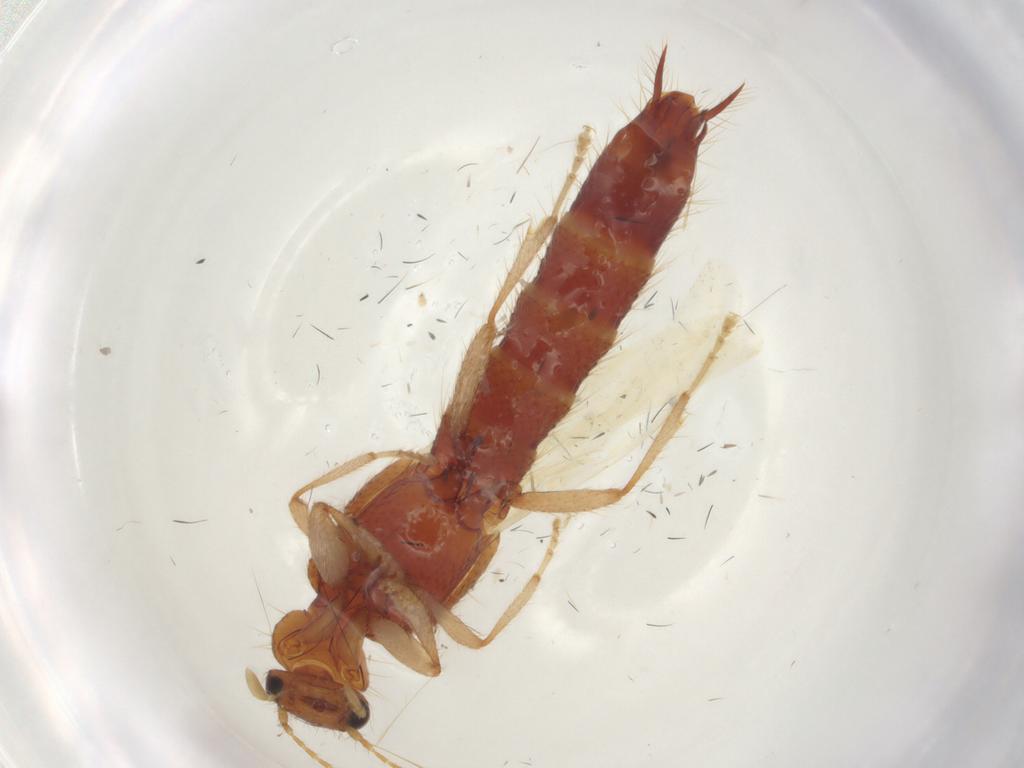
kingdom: Animalia
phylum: Arthropoda
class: Insecta
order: Coleoptera
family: Staphylinidae
